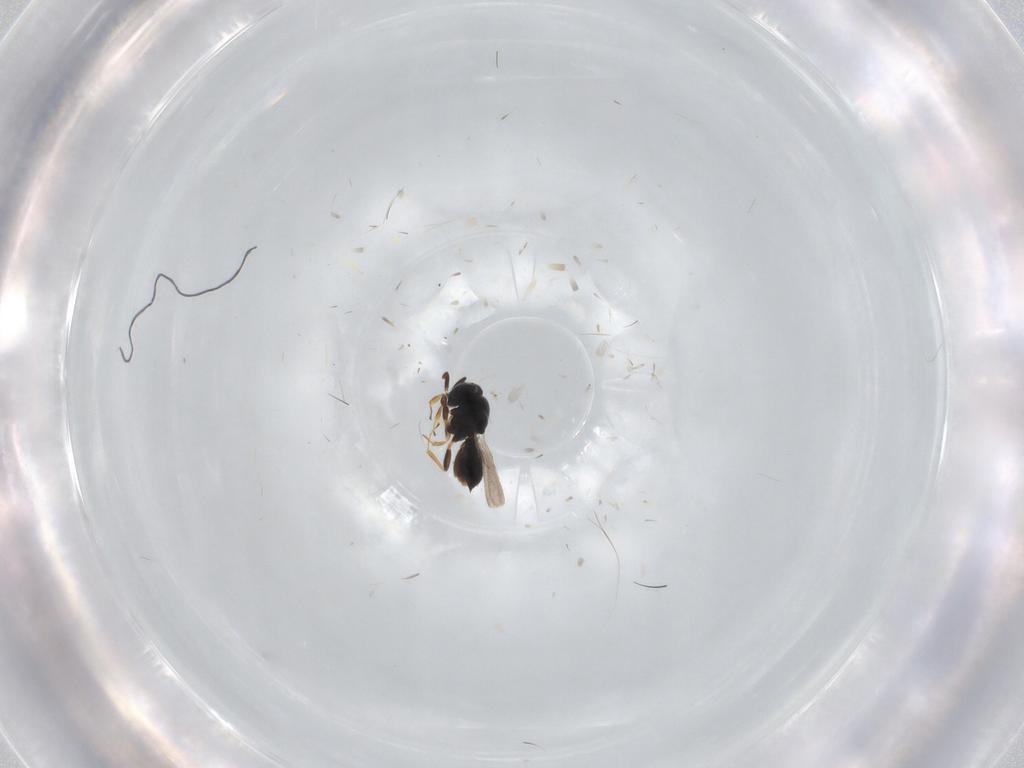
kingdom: Animalia
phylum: Arthropoda
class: Insecta
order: Hymenoptera
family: Scelionidae
